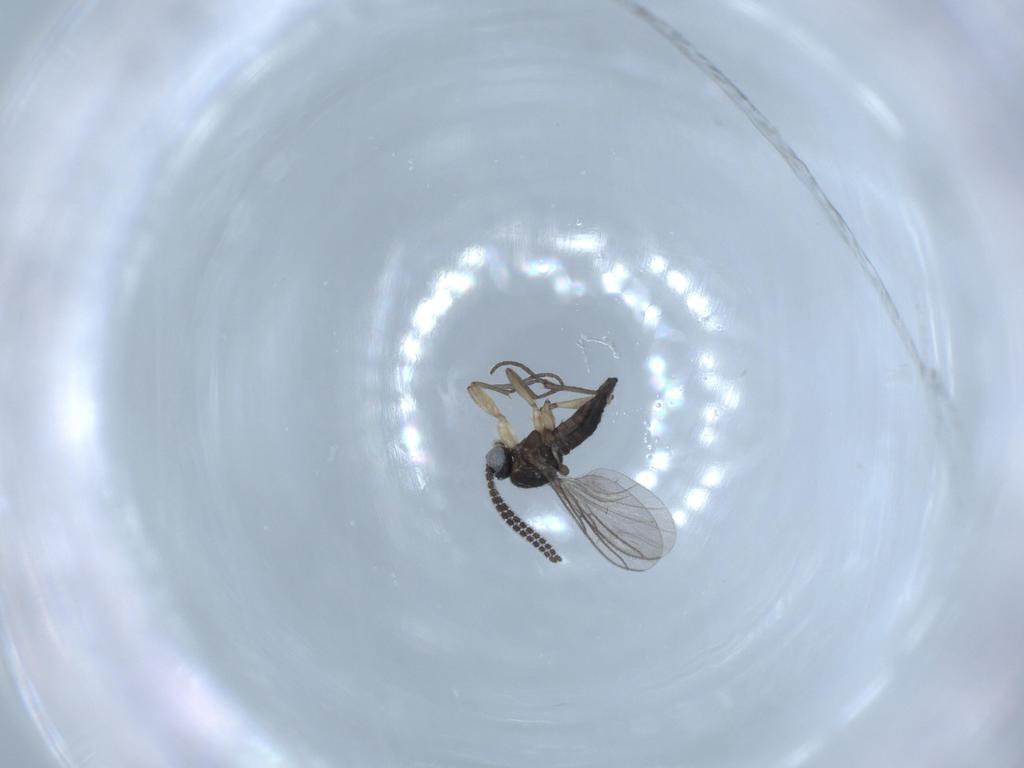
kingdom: Animalia
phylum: Arthropoda
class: Insecta
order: Diptera
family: Sciaridae
